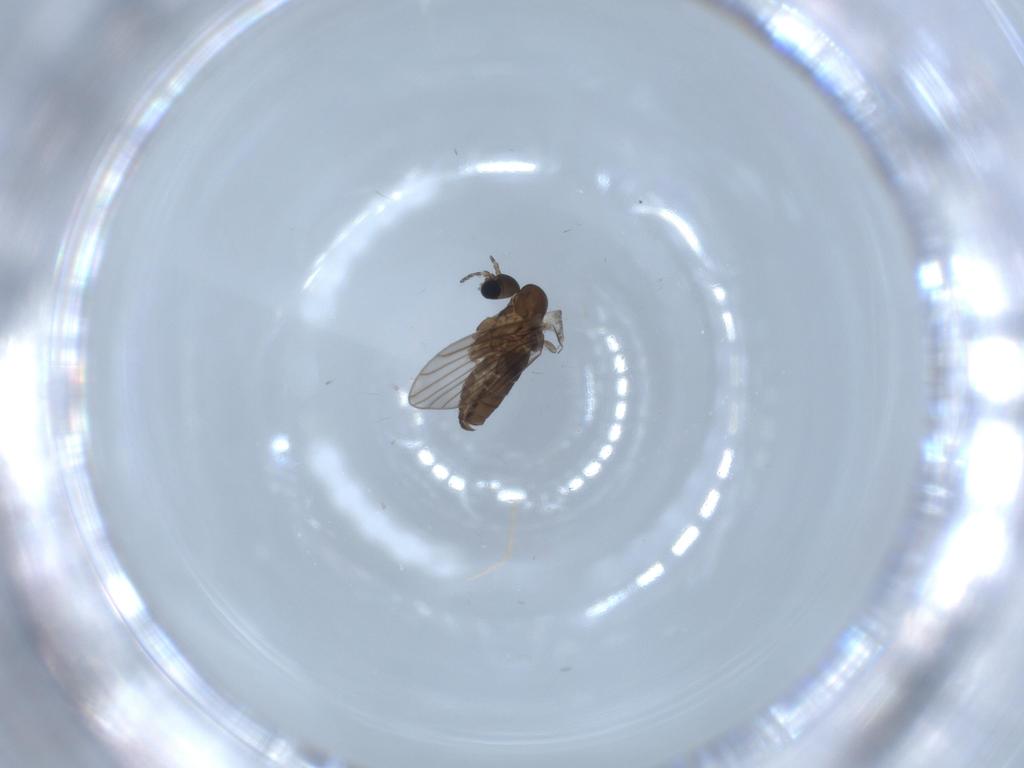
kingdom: Animalia
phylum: Arthropoda
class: Insecta
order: Diptera
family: Psychodidae
